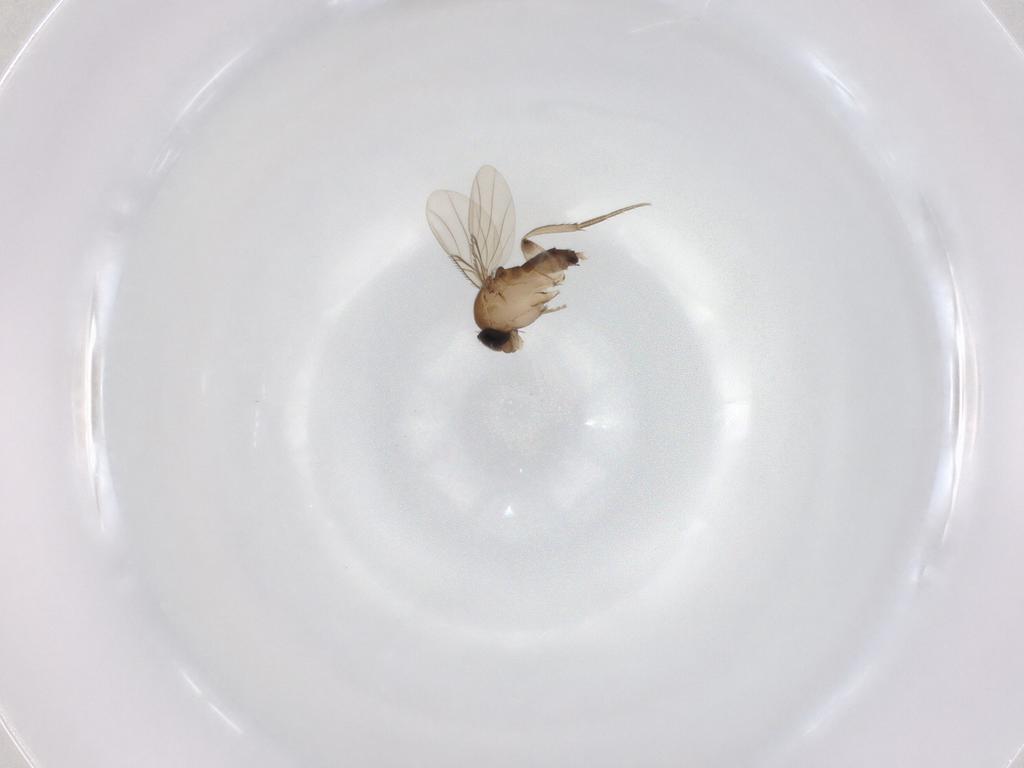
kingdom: Animalia
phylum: Arthropoda
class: Insecta
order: Diptera
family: Phoridae
